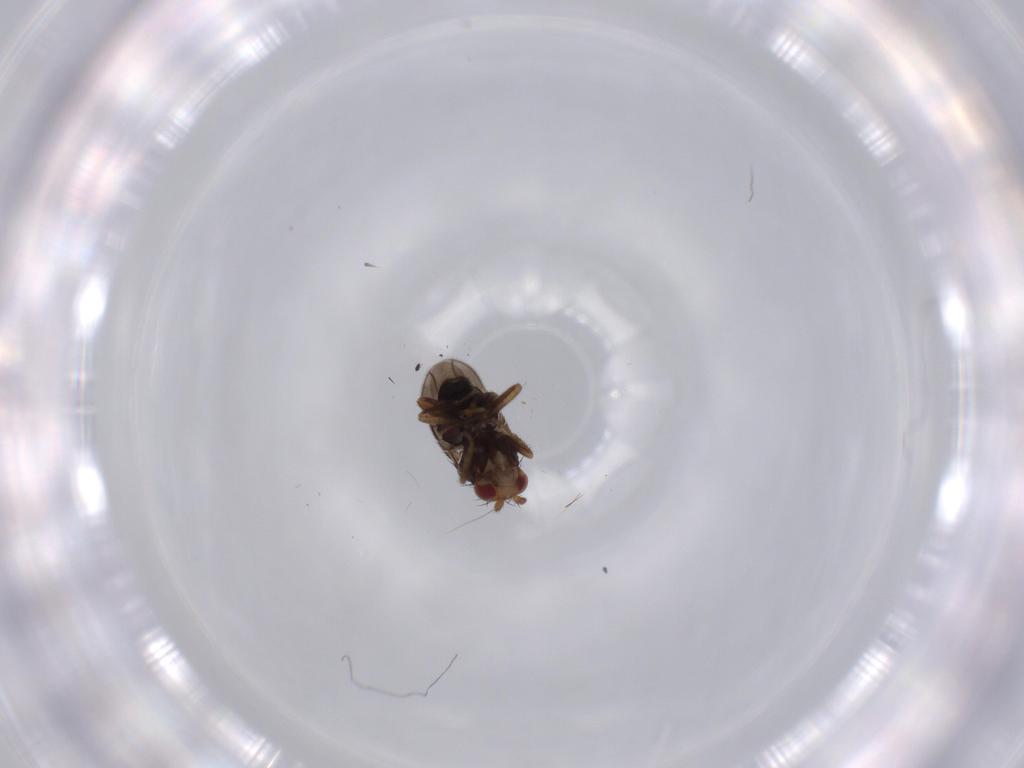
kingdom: Animalia
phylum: Arthropoda
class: Insecta
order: Diptera
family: Sphaeroceridae
